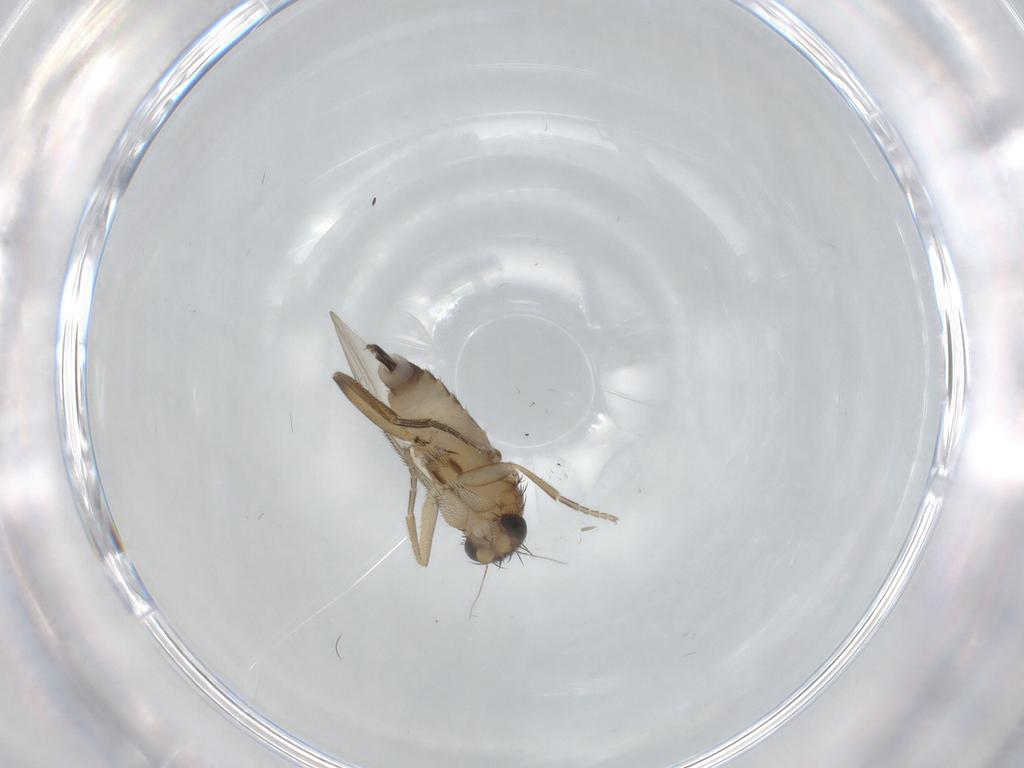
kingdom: Animalia
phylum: Arthropoda
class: Insecta
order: Diptera
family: Phoridae
